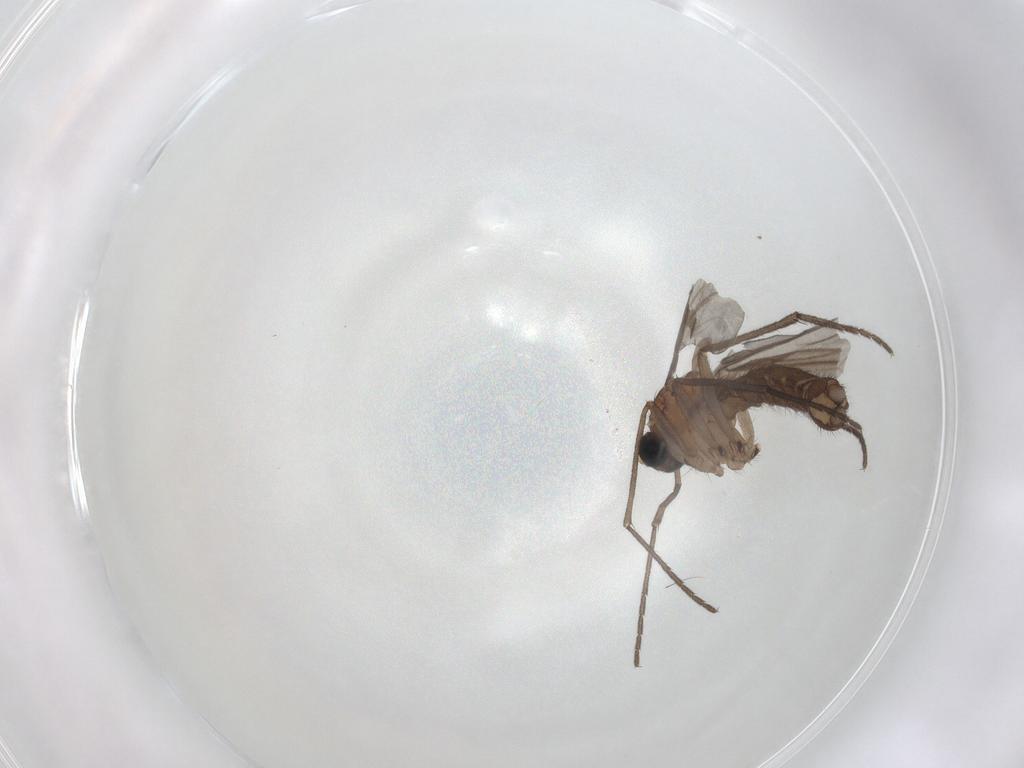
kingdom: Animalia
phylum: Arthropoda
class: Insecta
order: Diptera
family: Sciaridae
